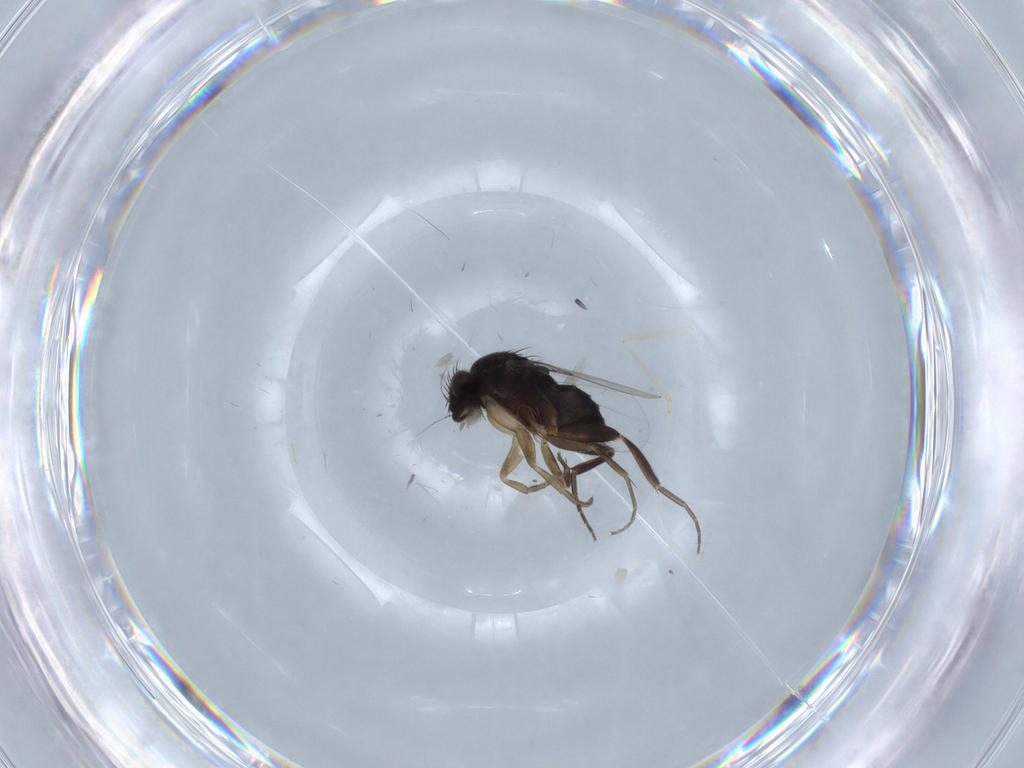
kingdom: Animalia
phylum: Arthropoda
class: Insecta
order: Diptera
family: Phoridae
